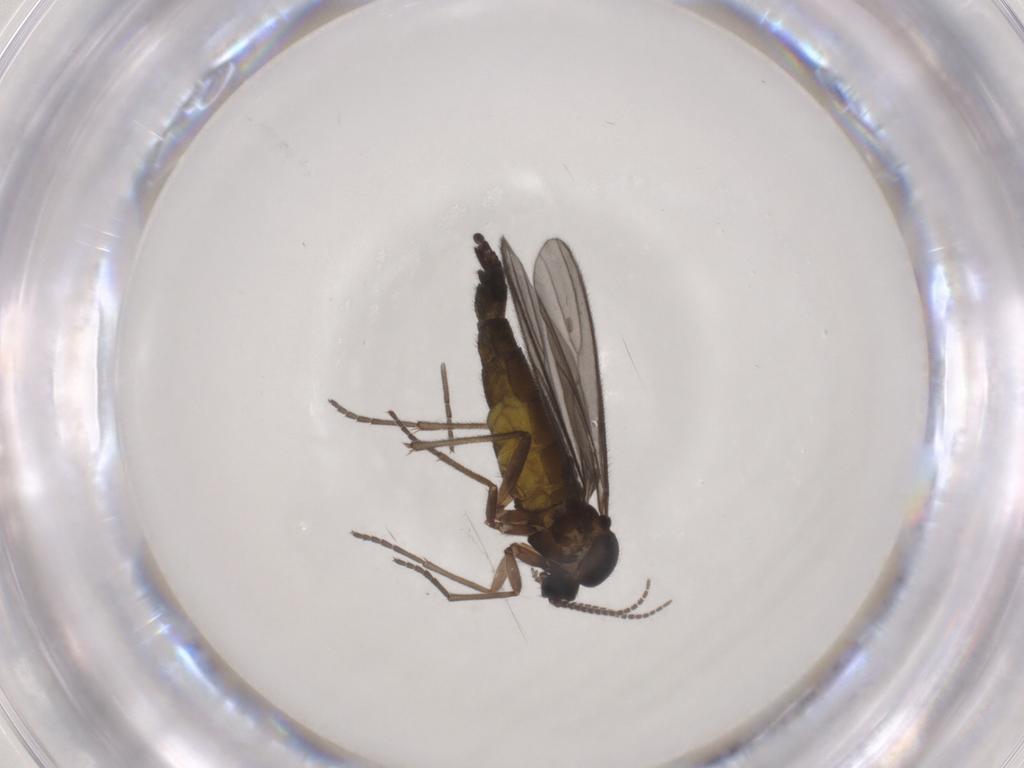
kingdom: Animalia
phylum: Arthropoda
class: Insecta
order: Diptera
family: Sciaridae
